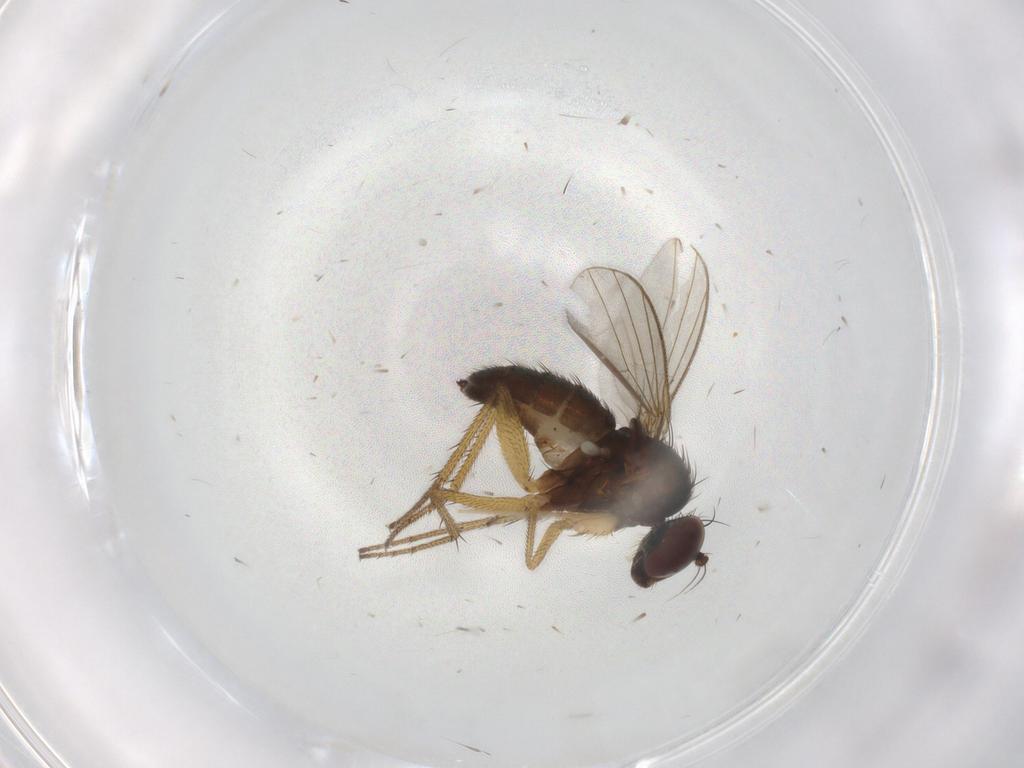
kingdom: Animalia
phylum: Arthropoda
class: Insecta
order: Diptera
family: Dolichopodidae
